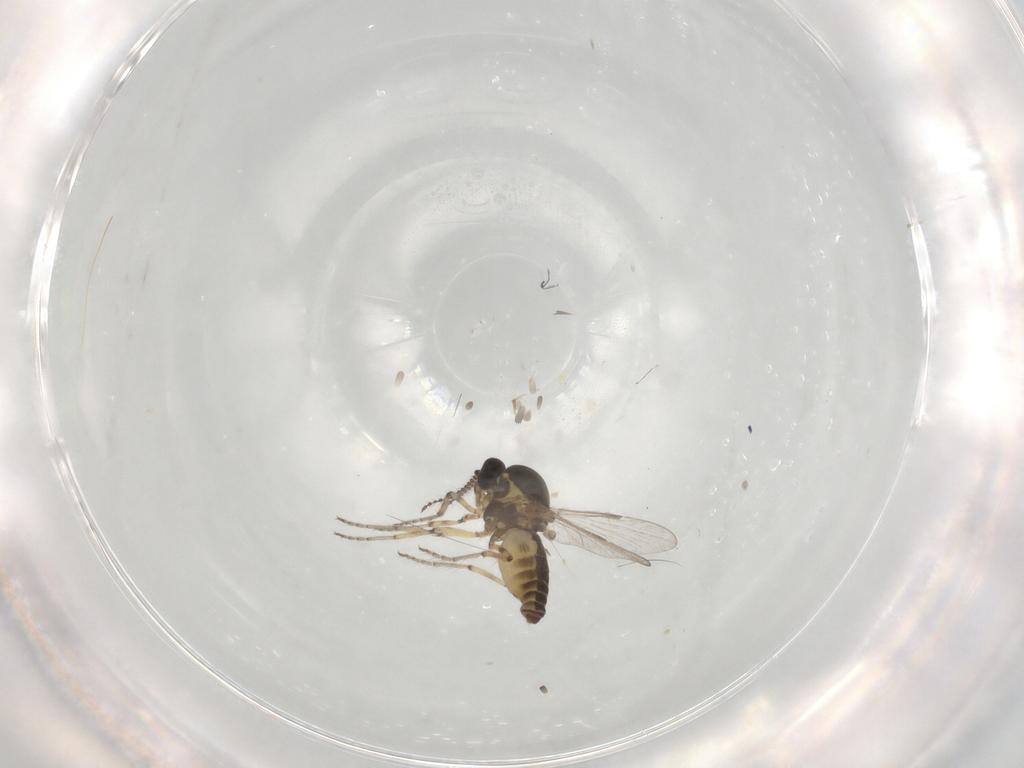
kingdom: Animalia
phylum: Arthropoda
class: Insecta
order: Diptera
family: Ceratopogonidae
